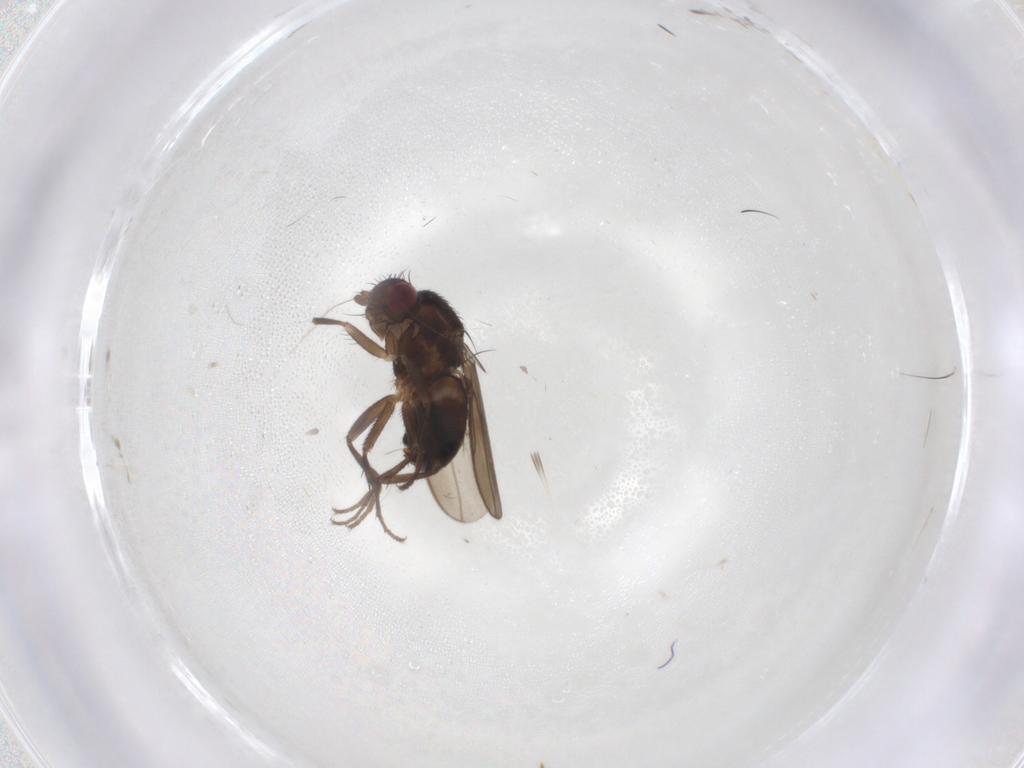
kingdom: Animalia
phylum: Arthropoda
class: Insecta
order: Diptera
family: Sphaeroceridae
